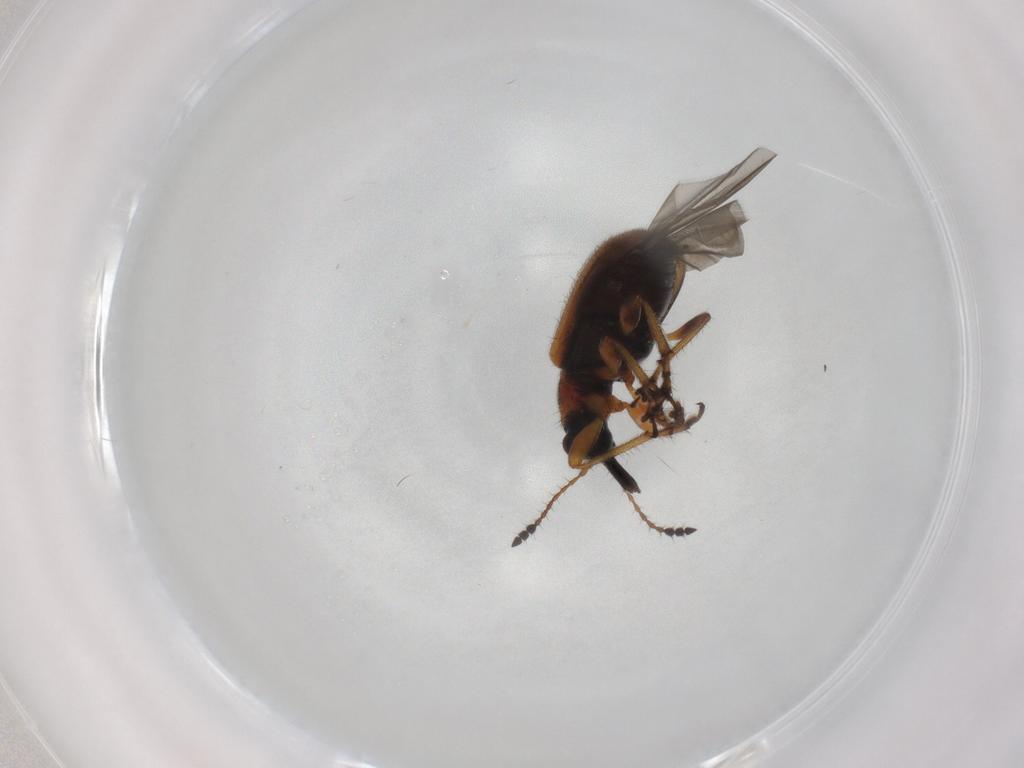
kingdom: Animalia
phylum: Arthropoda
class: Insecta
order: Coleoptera
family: Attelabidae
